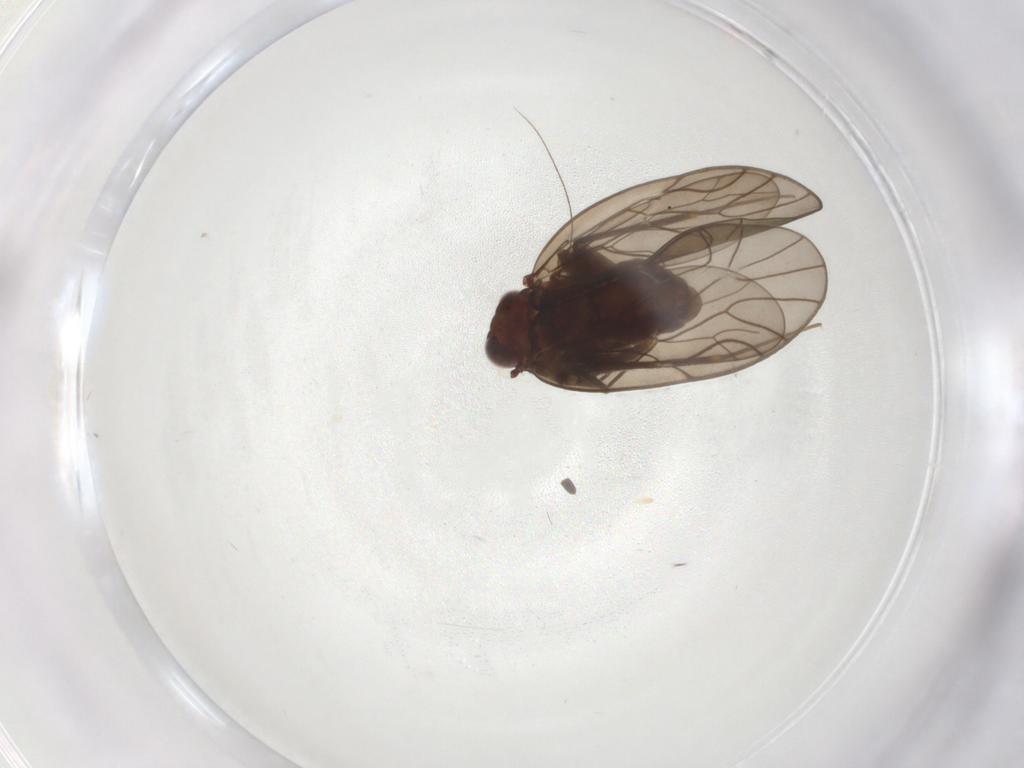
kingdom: Animalia
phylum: Arthropoda
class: Insecta
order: Psocodea
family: Philotarsidae
